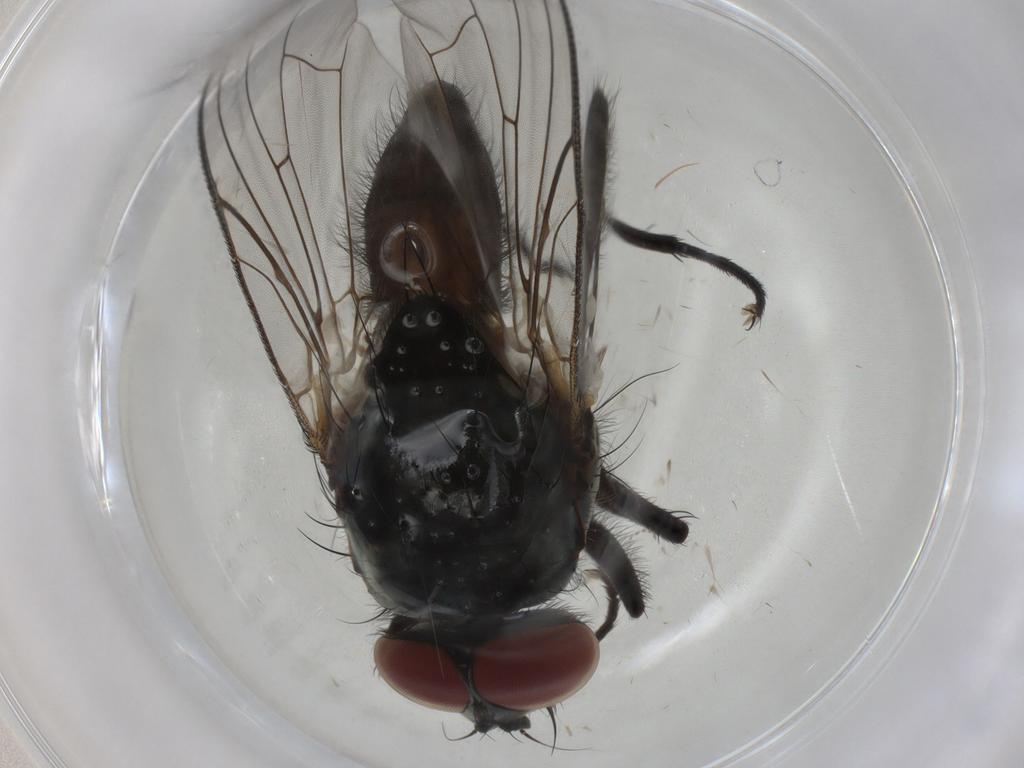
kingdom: Animalia
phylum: Arthropoda
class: Insecta
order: Diptera
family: Anthomyiidae
